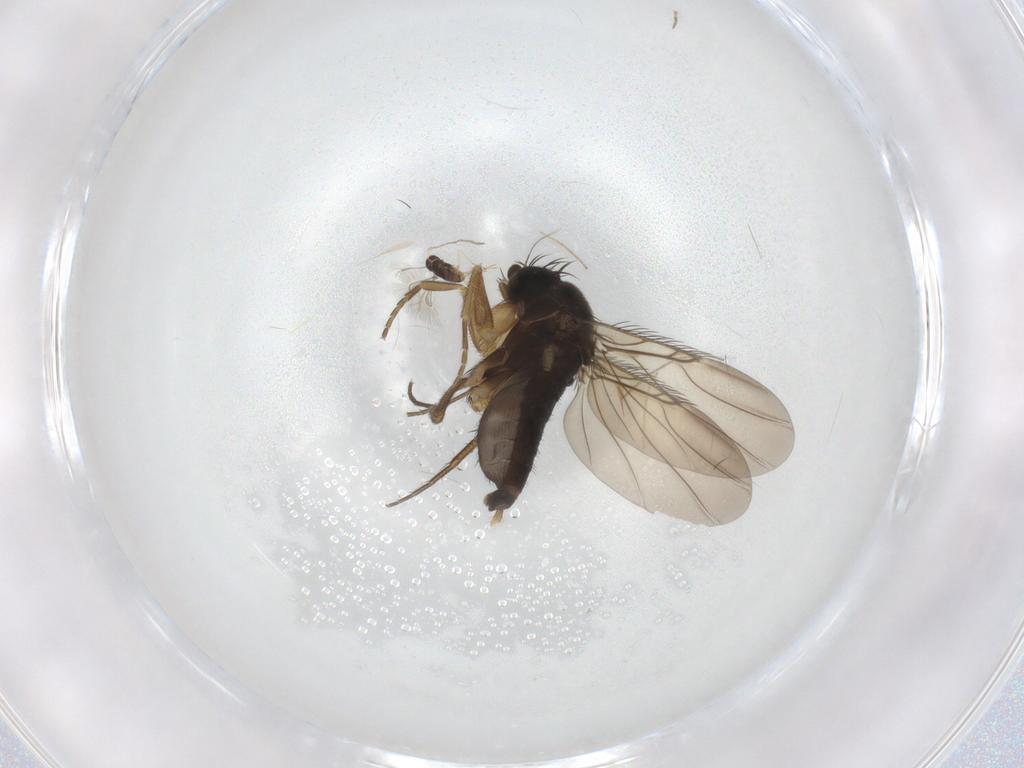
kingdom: Animalia
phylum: Arthropoda
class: Insecta
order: Diptera
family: Phoridae
